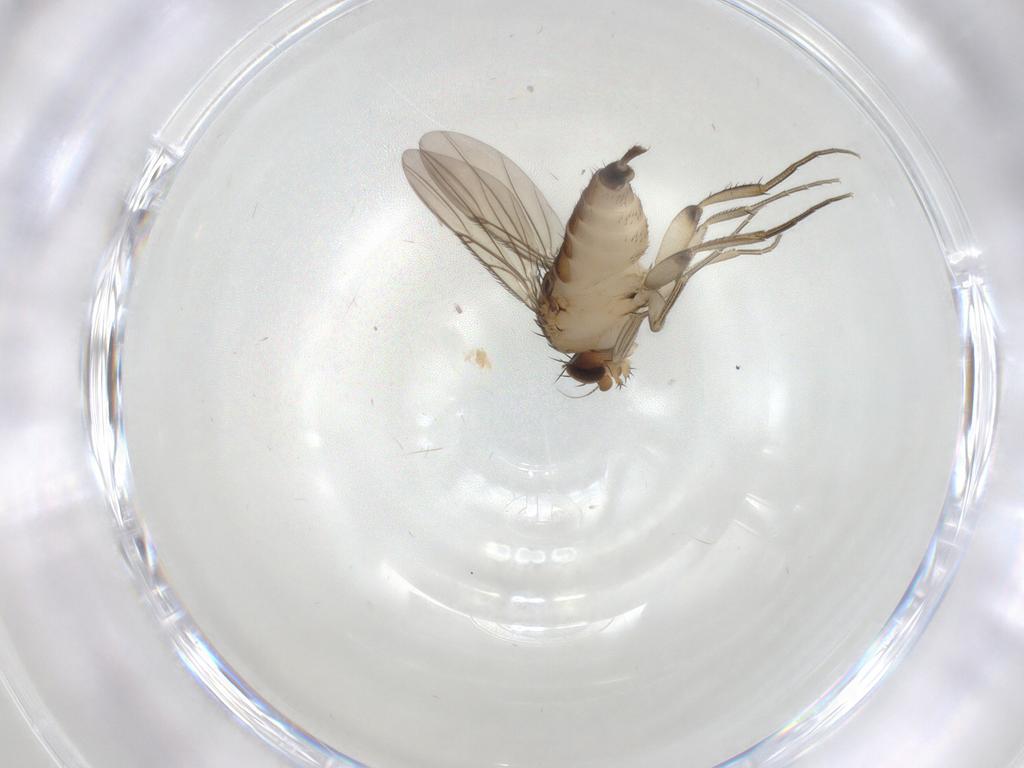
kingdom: Animalia
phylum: Arthropoda
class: Insecta
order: Diptera
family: Phoridae
